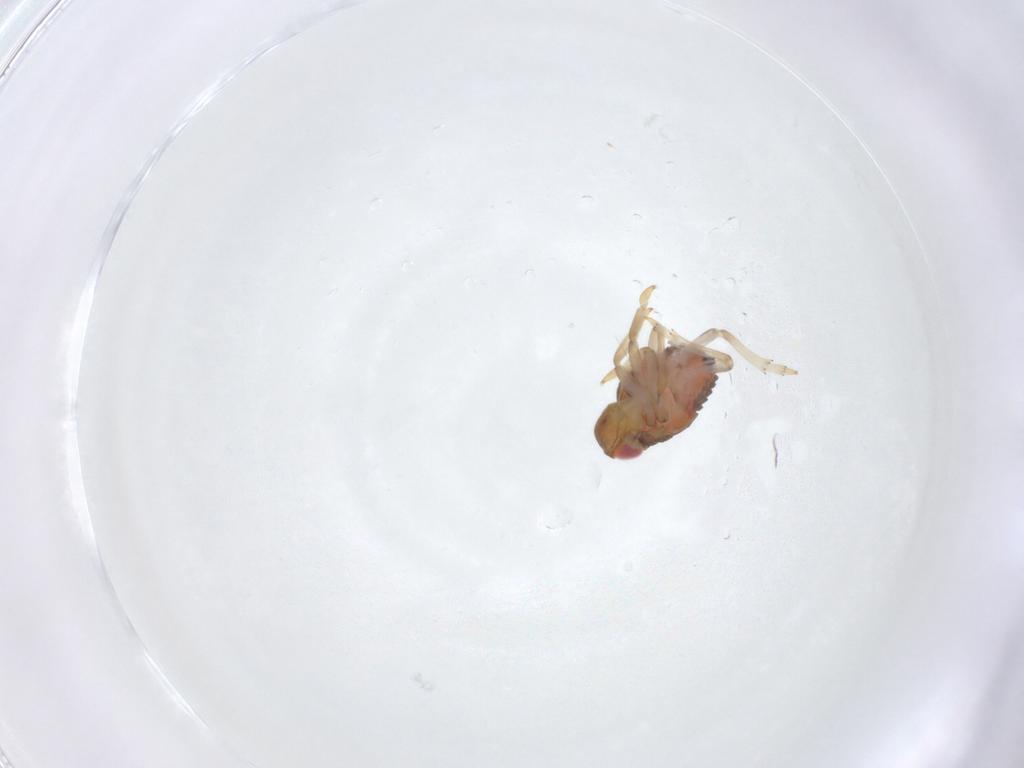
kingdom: Animalia
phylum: Arthropoda
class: Insecta
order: Hemiptera
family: Issidae
